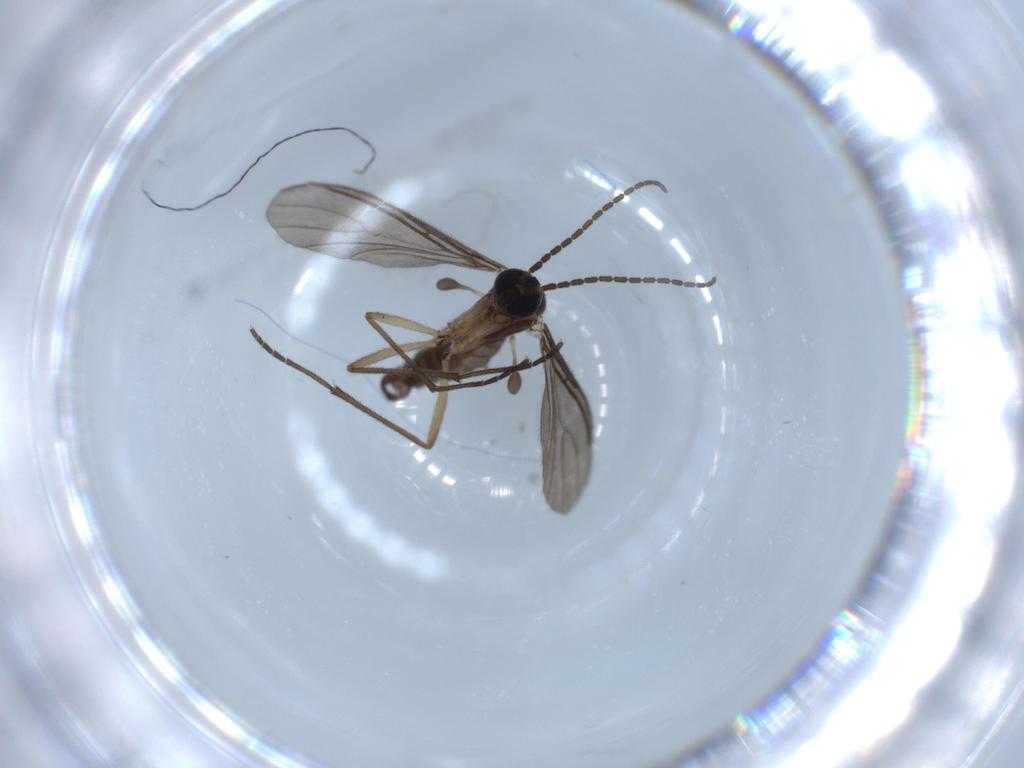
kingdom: Animalia
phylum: Arthropoda
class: Insecta
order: Diptera
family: Sciaridae
